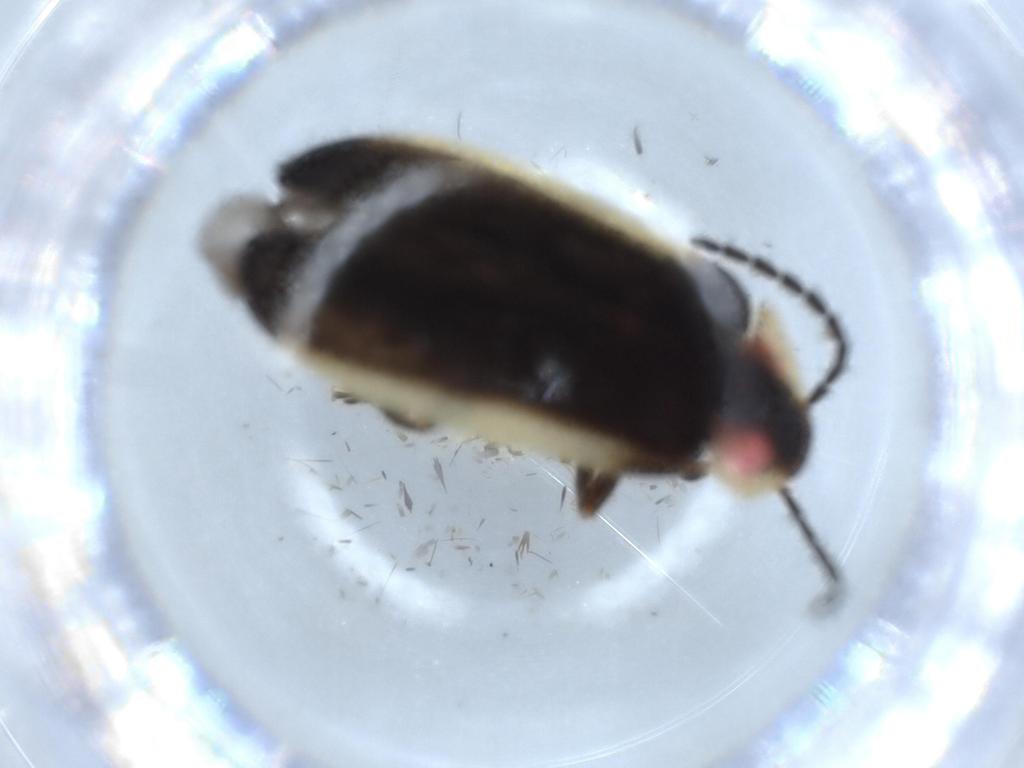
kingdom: Animalia
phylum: Arthropoda
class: Insecta
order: Coleoptera
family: Lampyridae
